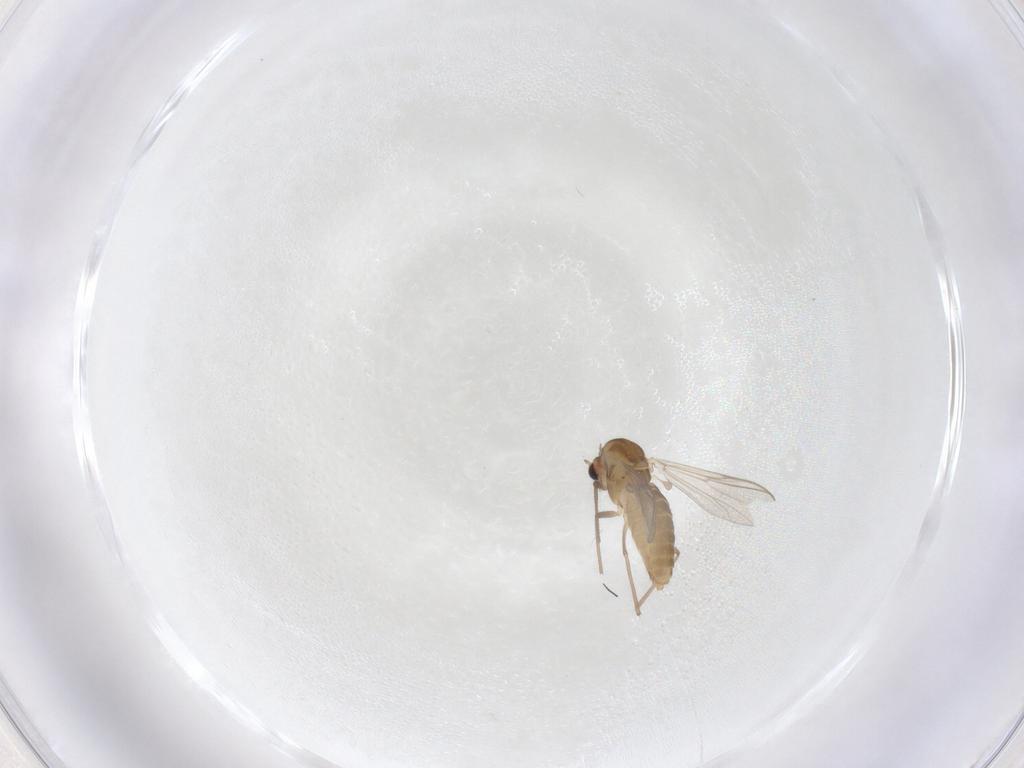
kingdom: Animalia
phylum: Arthropoda
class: Insecta
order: Diptera
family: Chironomidae
